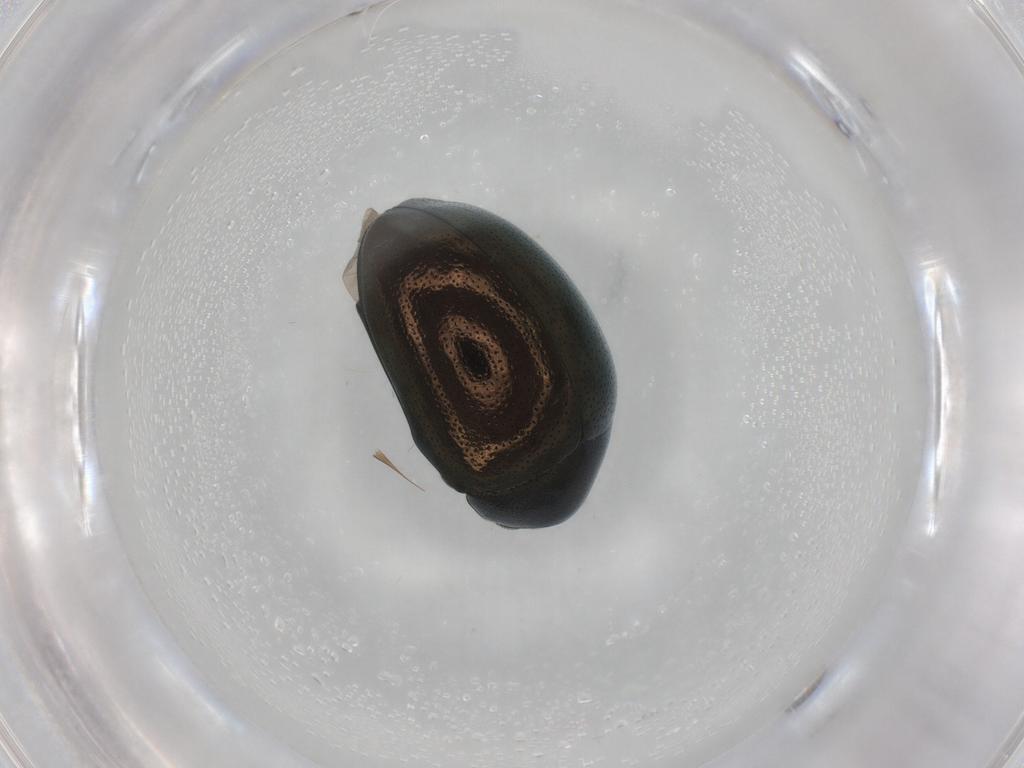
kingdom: Animalia
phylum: Arthropoda
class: Insecta
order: Coleoptera
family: Chrysomelidae
